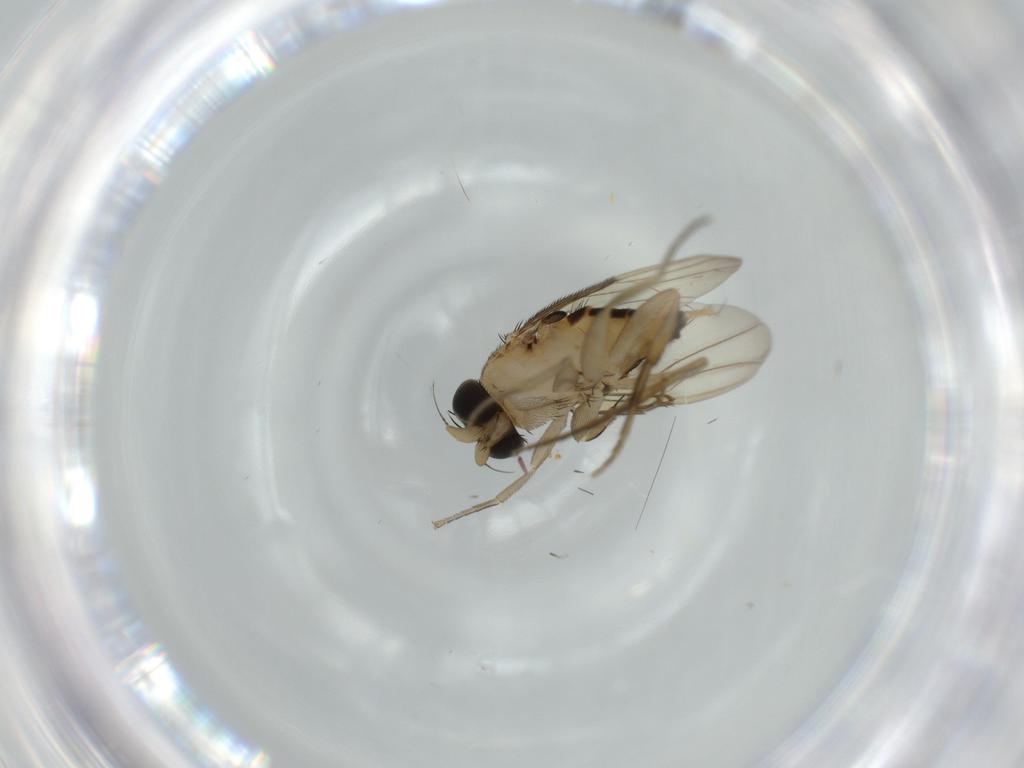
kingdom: Animalia
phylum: Arthropoda
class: Insecta
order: Diptera
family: Phoridae
